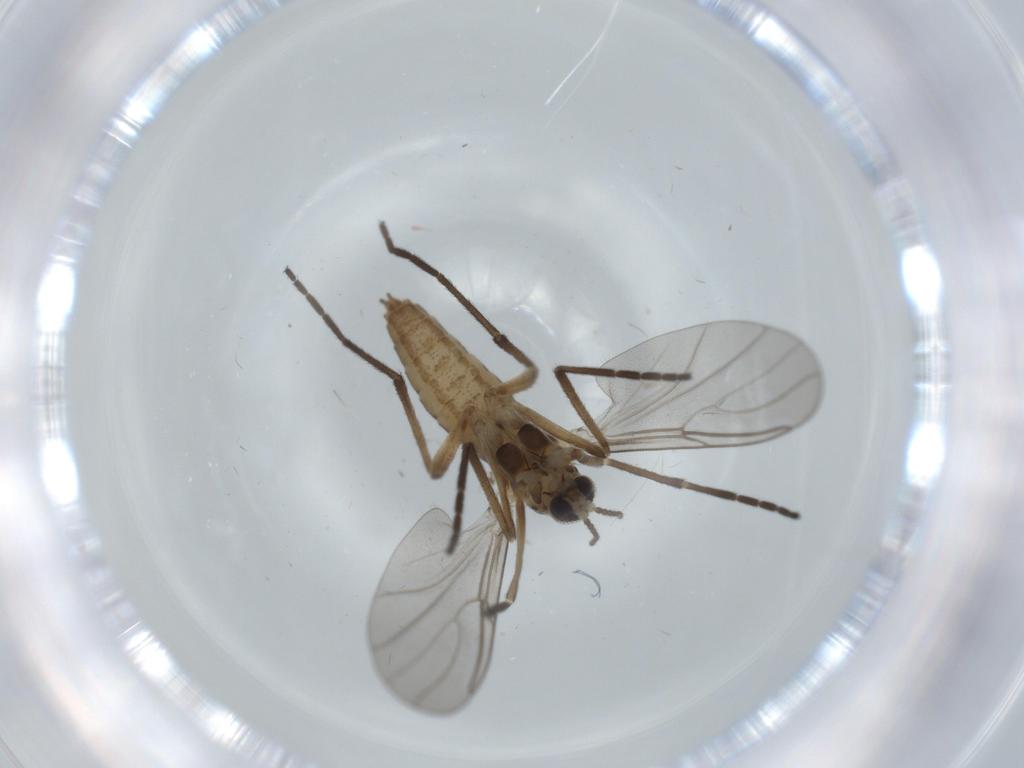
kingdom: Animalia
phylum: Arthropoda
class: Insecta
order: Diptera
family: Cecidomyiidae
